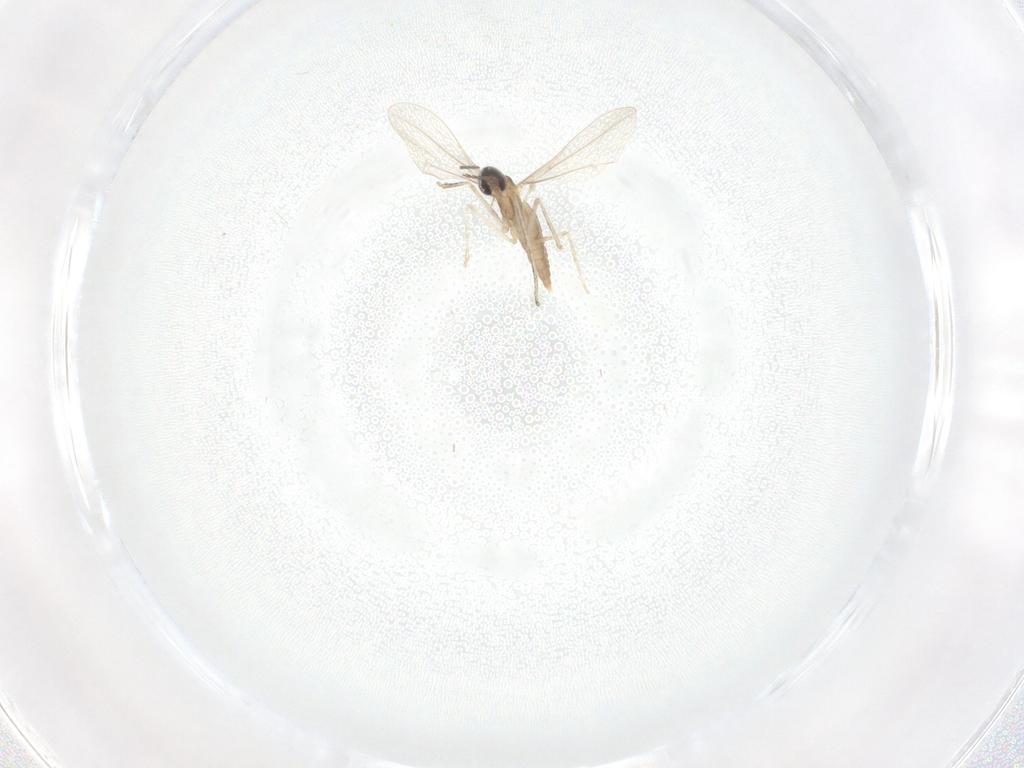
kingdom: Animalia
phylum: Arthropoda
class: Insecta
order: Diptera
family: Cecidomyiidae
